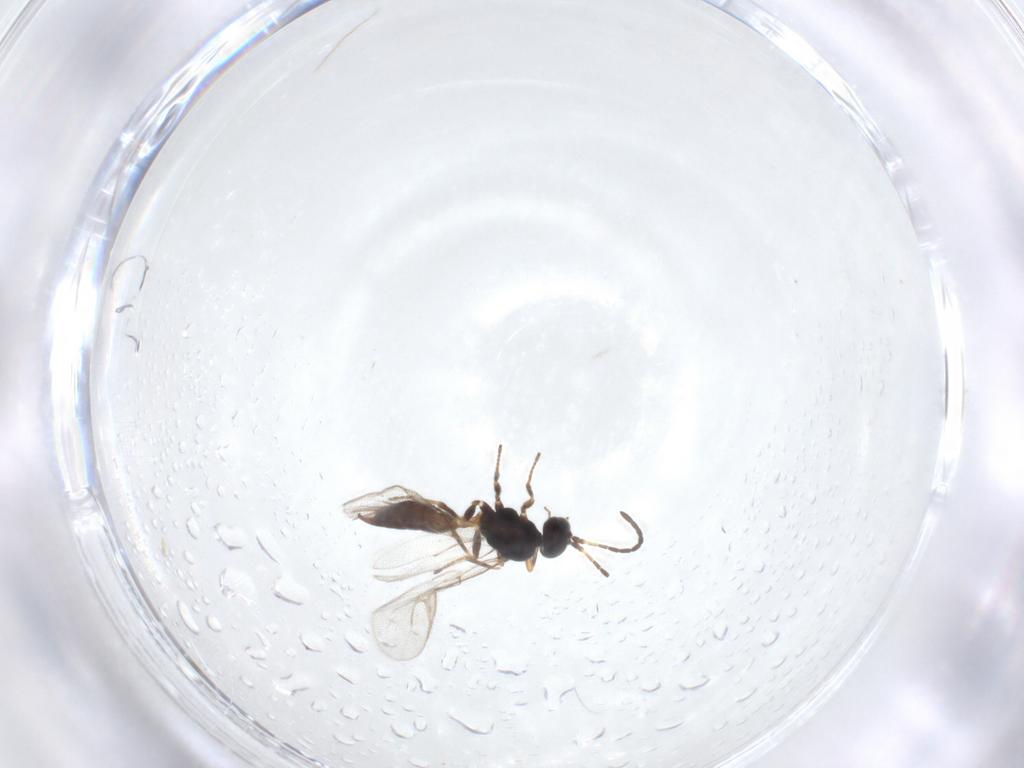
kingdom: Animalia
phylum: Arthropoda
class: Insecta
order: Hymenoptera
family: Braconidae
